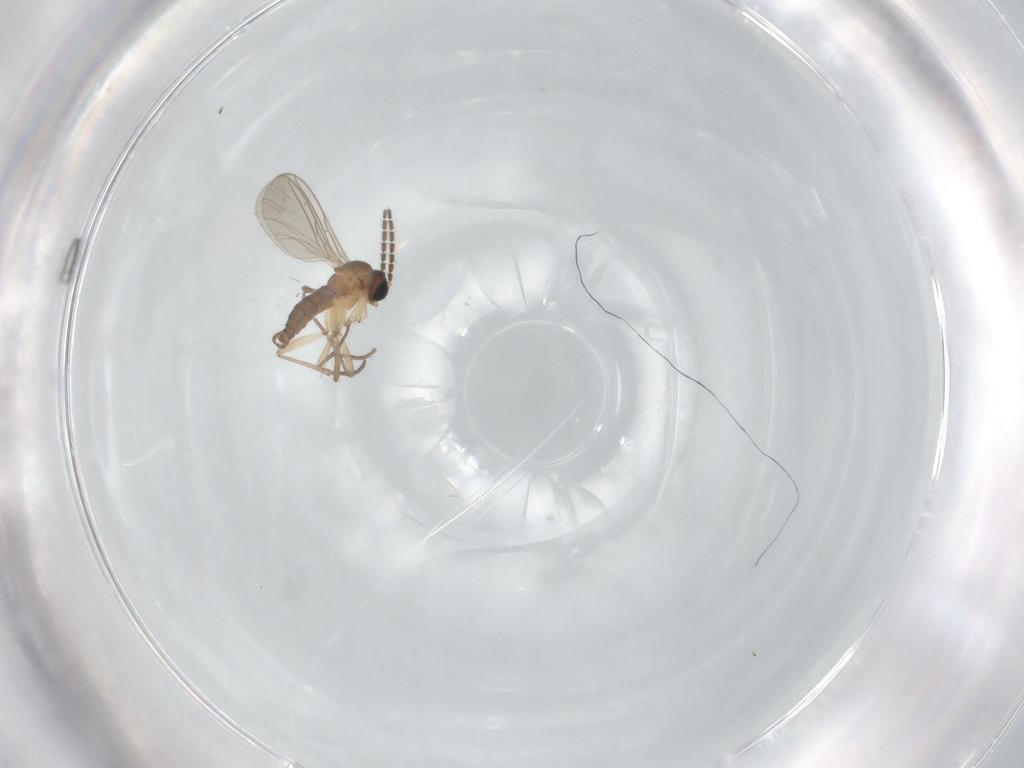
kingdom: Animalia
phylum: Arthropoda
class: Insecta
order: Diptera
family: Sciaridae
